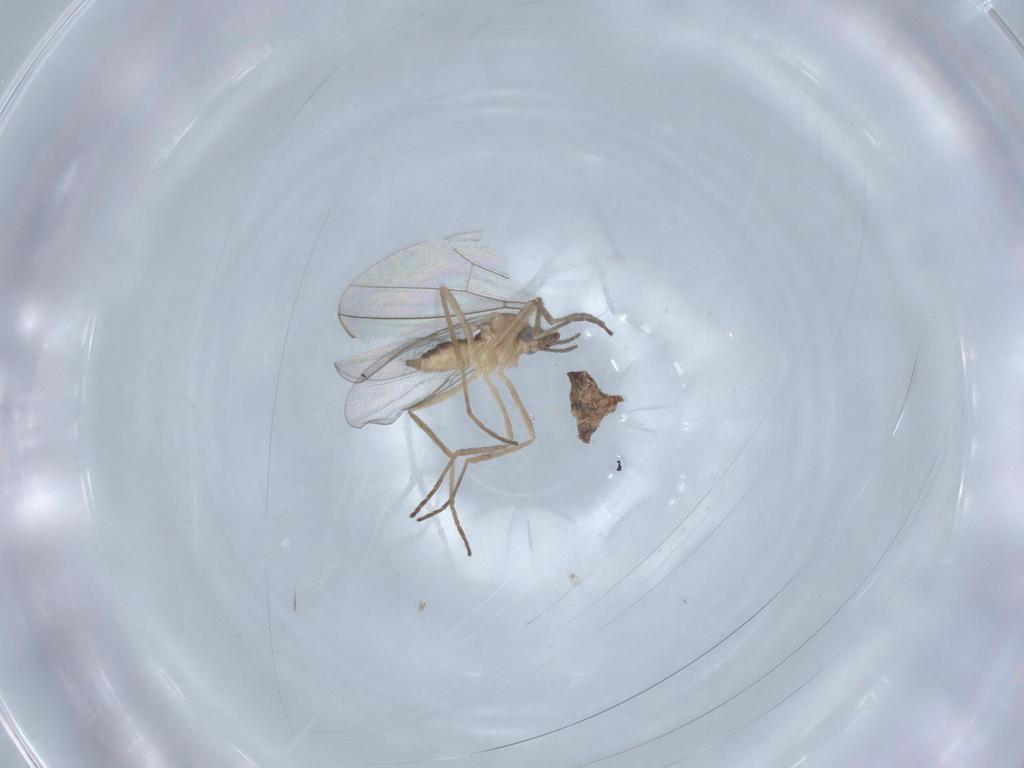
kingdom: Animalia
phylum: Arthropoda
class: Insecta
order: Diptera
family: Cecidomyiidae
